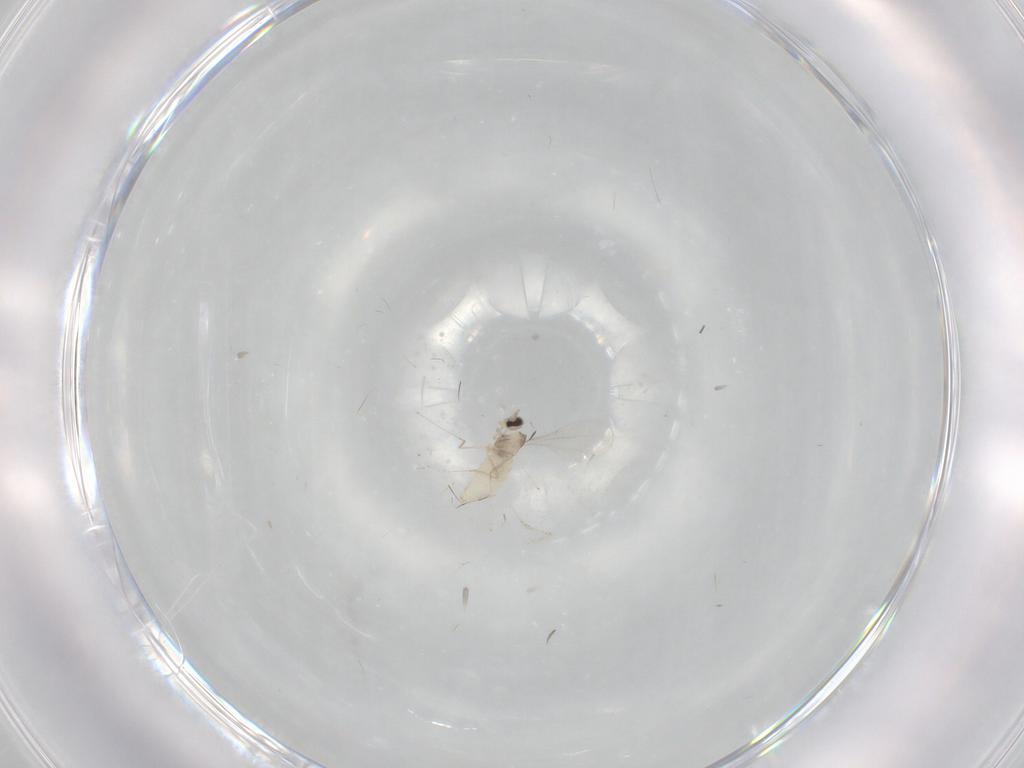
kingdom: Animalia
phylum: Arthropoda
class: Insecta
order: Diptera
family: Cecidomyiidae
